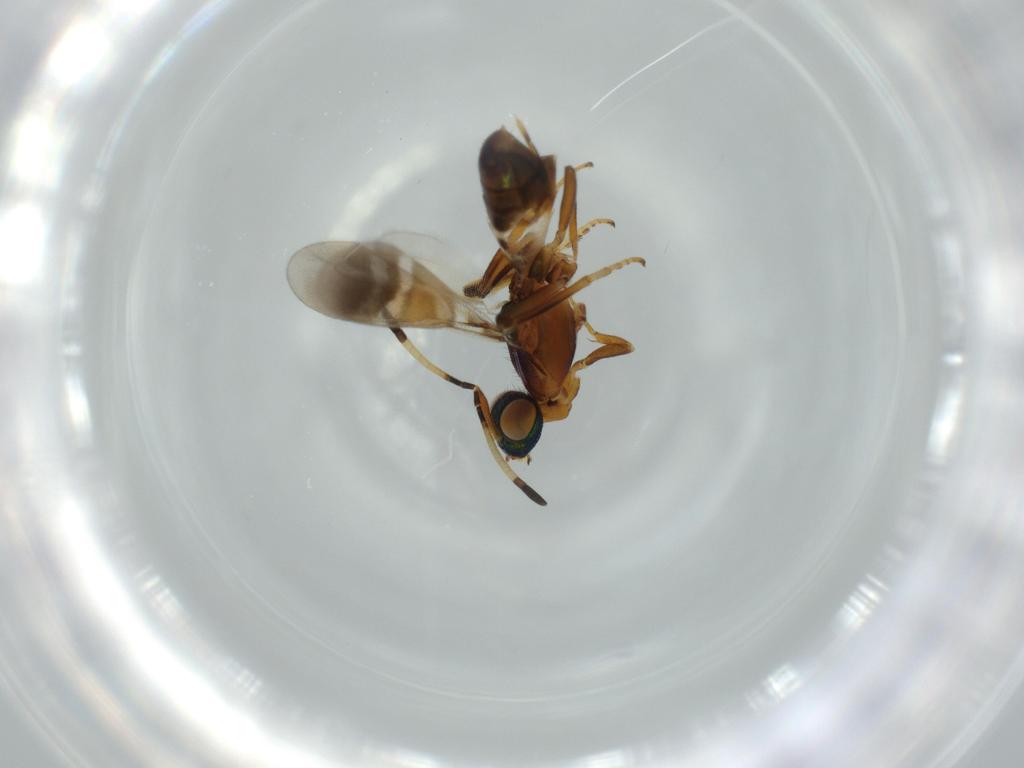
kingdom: Animalia
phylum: Arthropoda
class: Insecta
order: Hymenoptera
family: Eupelmidae
